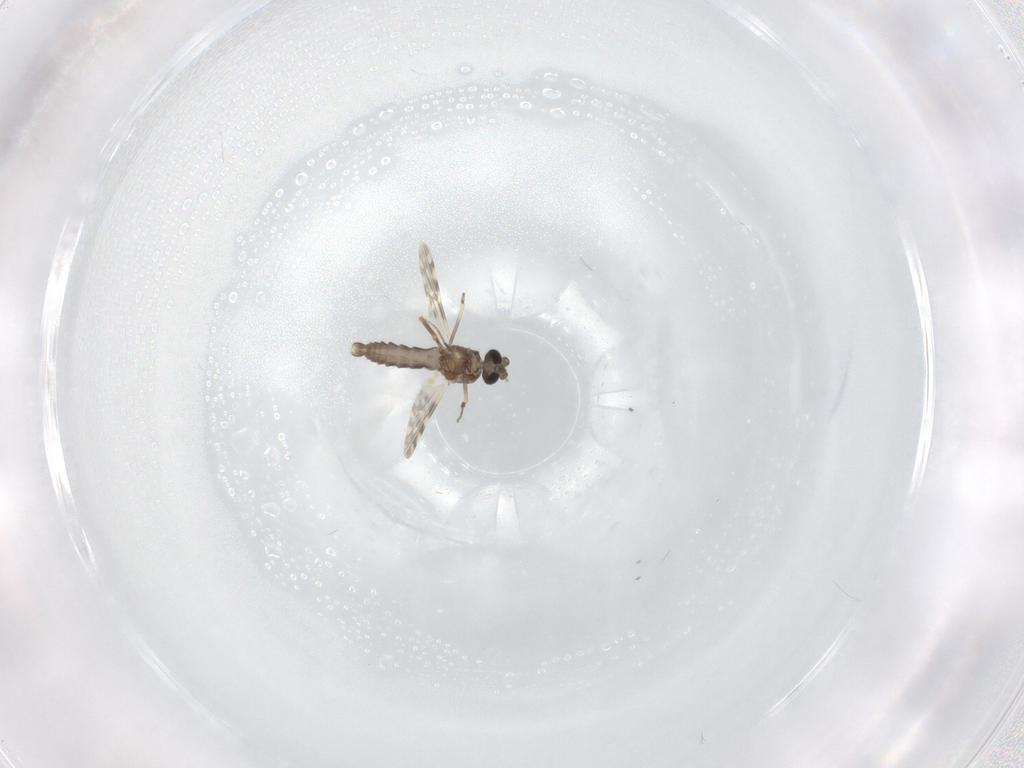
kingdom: Animalia
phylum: Arthropoda
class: Insecta
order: Diptera
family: Ceratopogonidae
